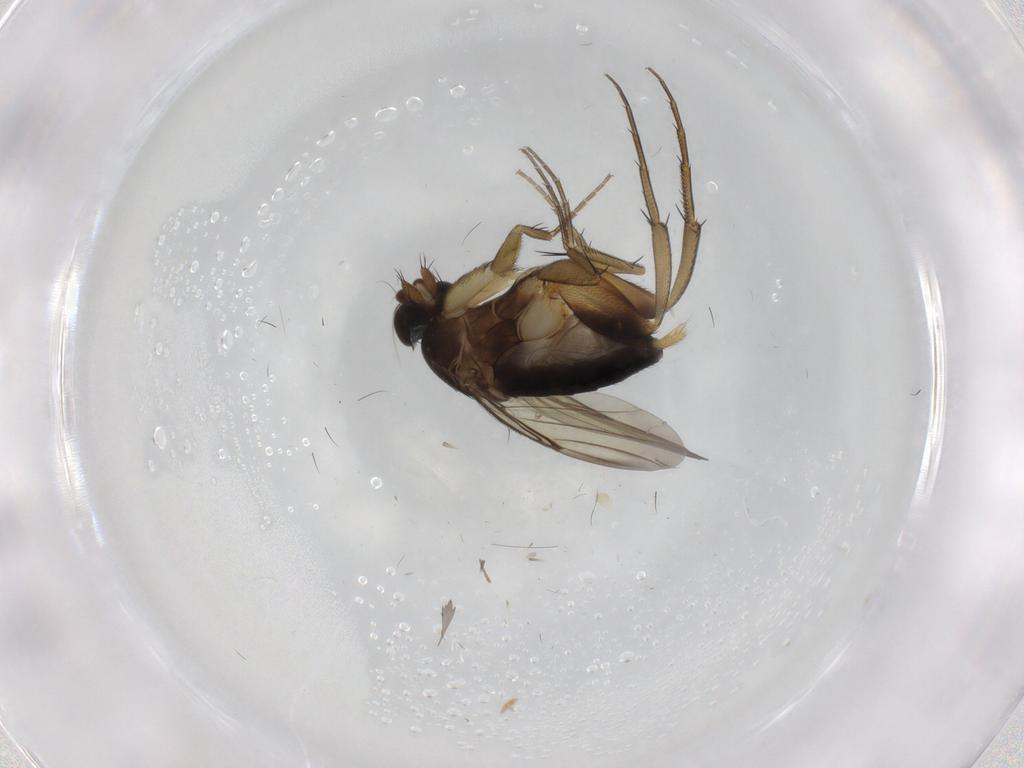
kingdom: Animalia
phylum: Arthropoda
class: Insecta
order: Diptera
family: Phoridae
